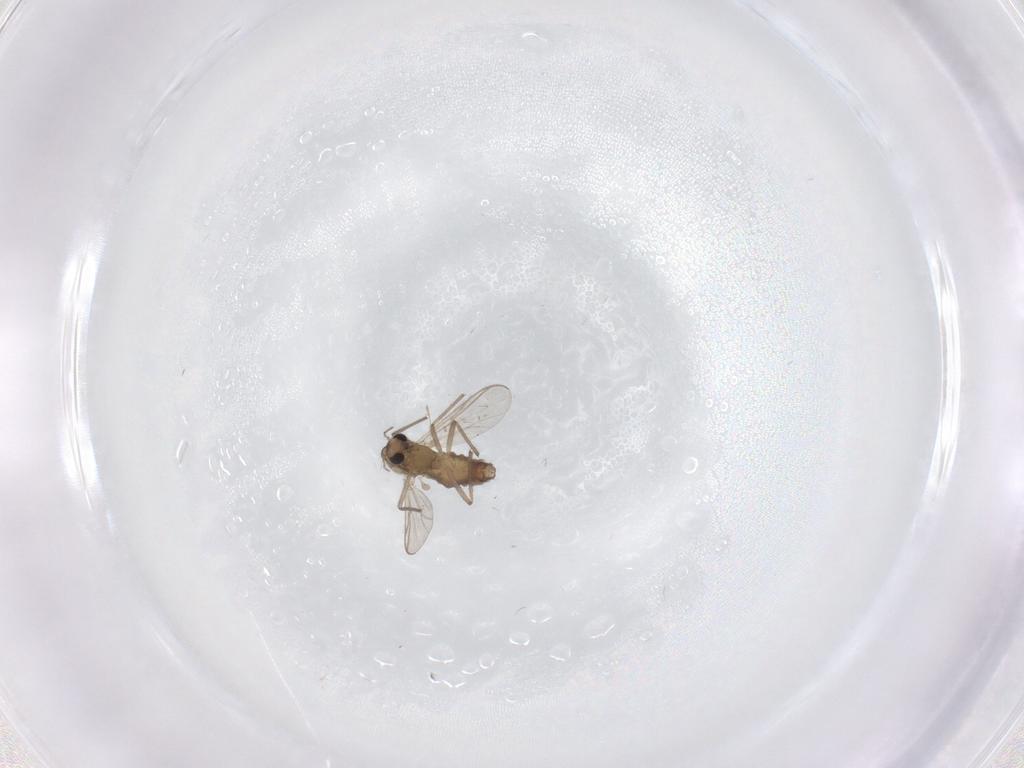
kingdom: Animalia
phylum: Arthropoda
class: Insecta
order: Diptera
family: Chironomidae
